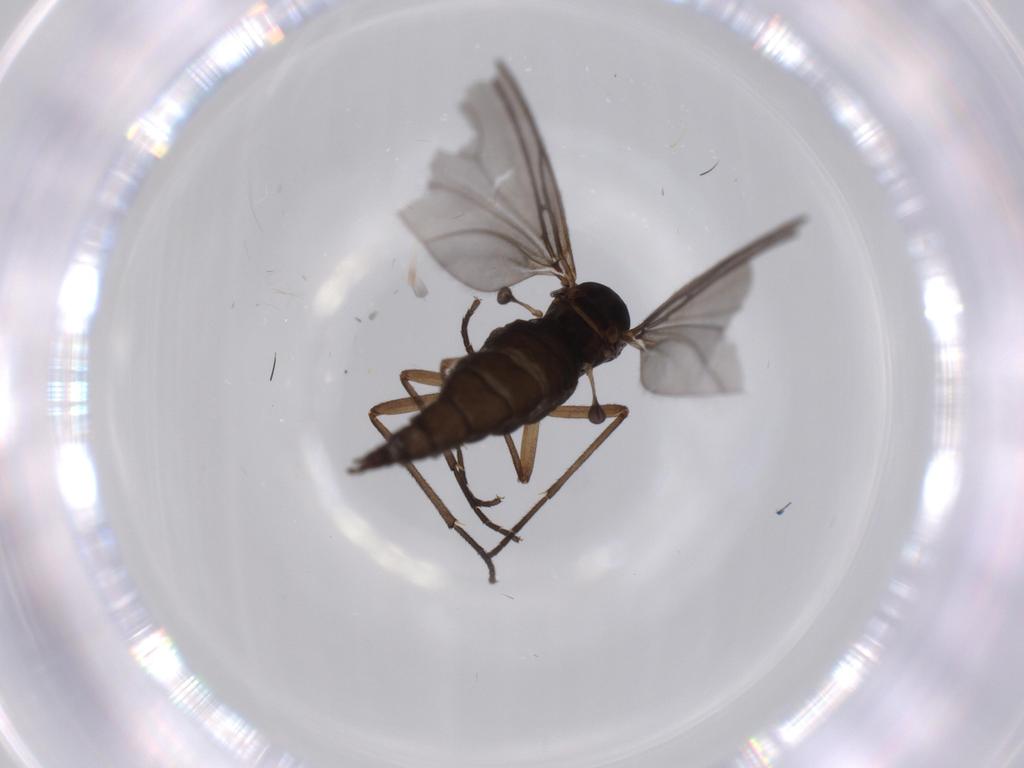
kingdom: Animalia
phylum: Arthropoda
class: Insecta
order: Diptera
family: Sciaridae
